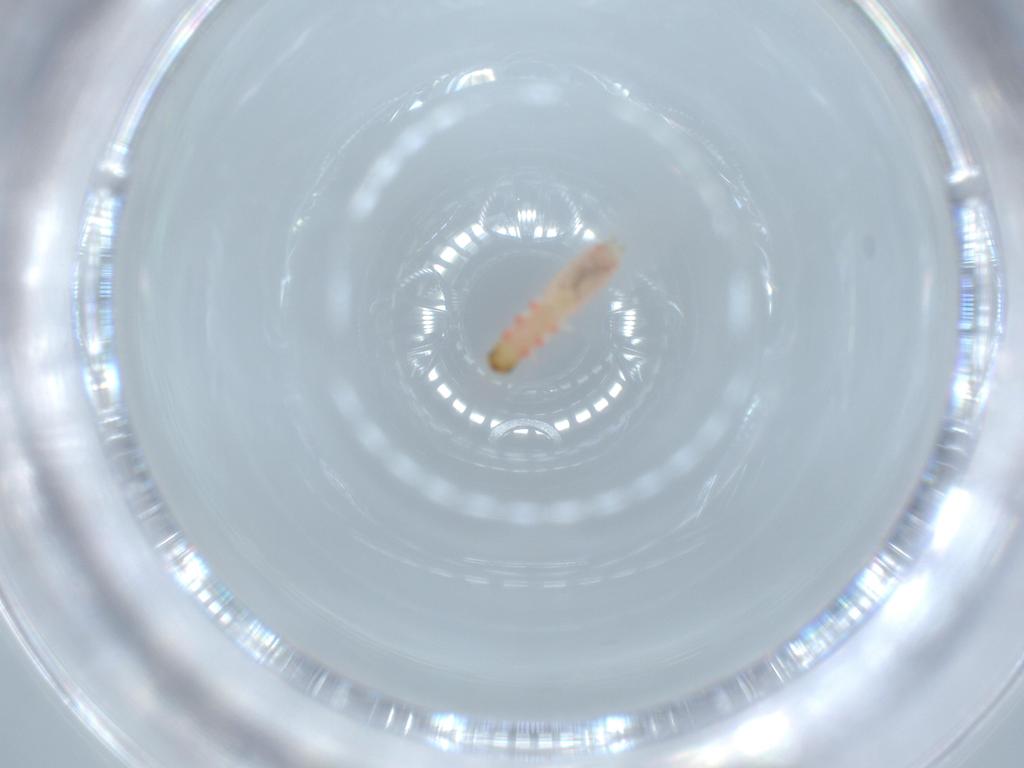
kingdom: Animalia
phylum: Arthropoda
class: Insecta
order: Coleoptera
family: Melyridae
